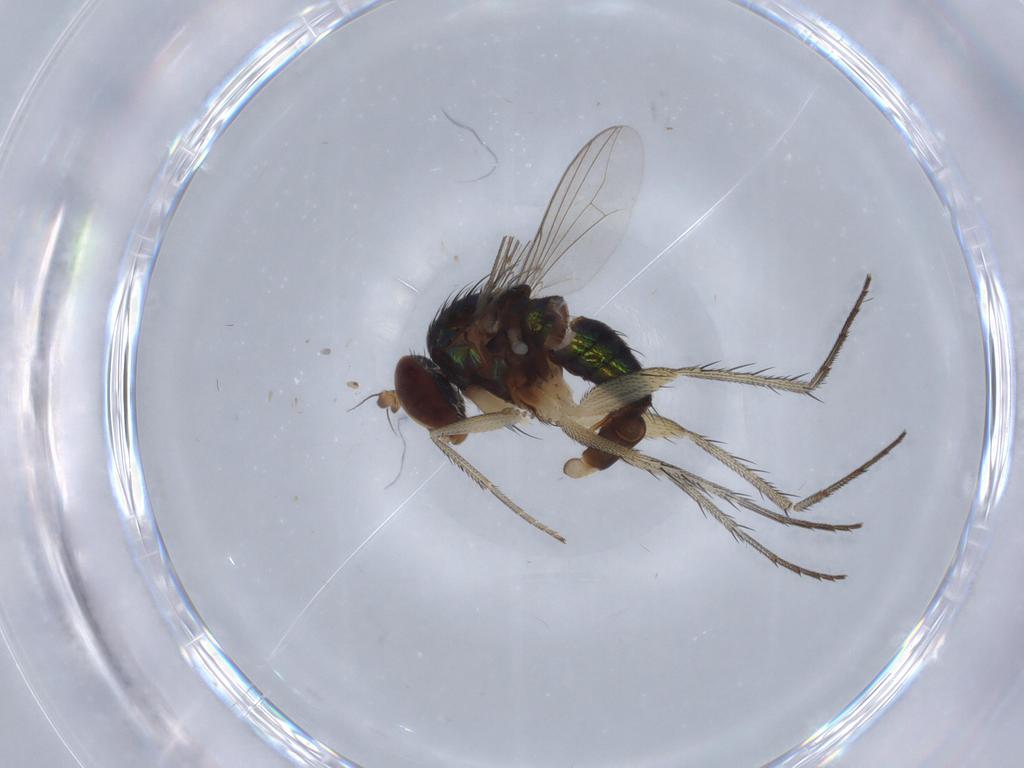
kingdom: Animalia
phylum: Arthropoda
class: Insecta
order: Diptera
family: Dolichopodidae
